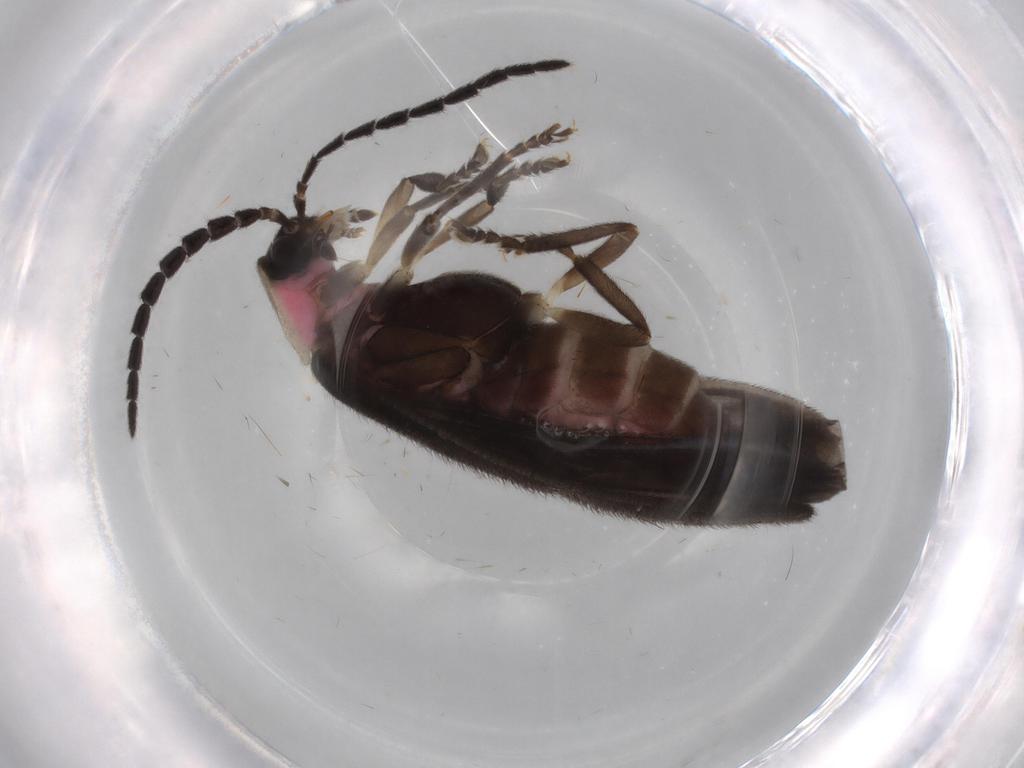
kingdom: Animalia
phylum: Arthropoda
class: Insecta
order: Coleoptera
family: Lampyridae
